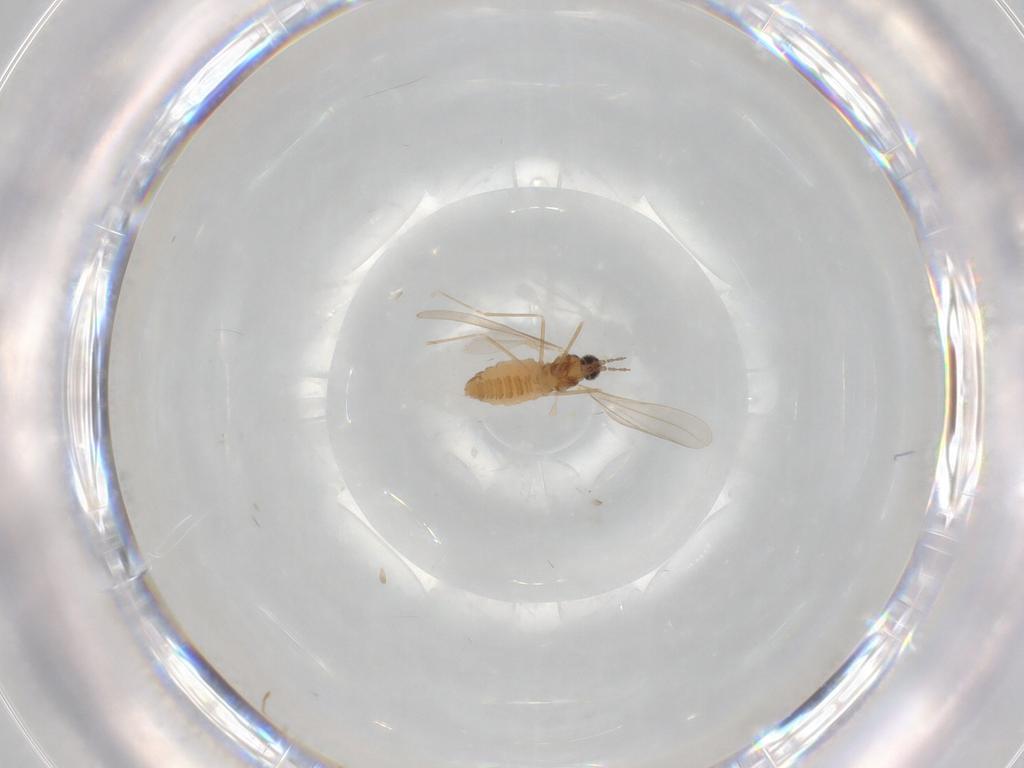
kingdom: Animalia
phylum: Arthropoda
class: Insecta
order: Diptera
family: Cecidomyiidae
